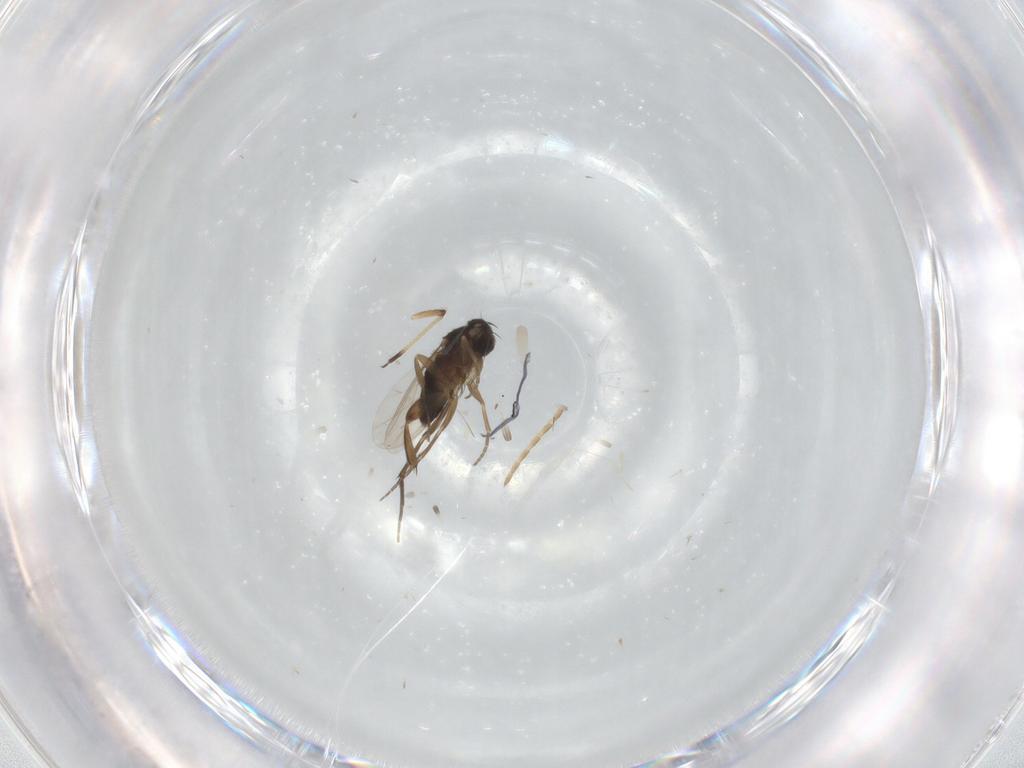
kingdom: Animalia
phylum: Arthropoda
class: Insecta
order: Diptera
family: Phoridae
